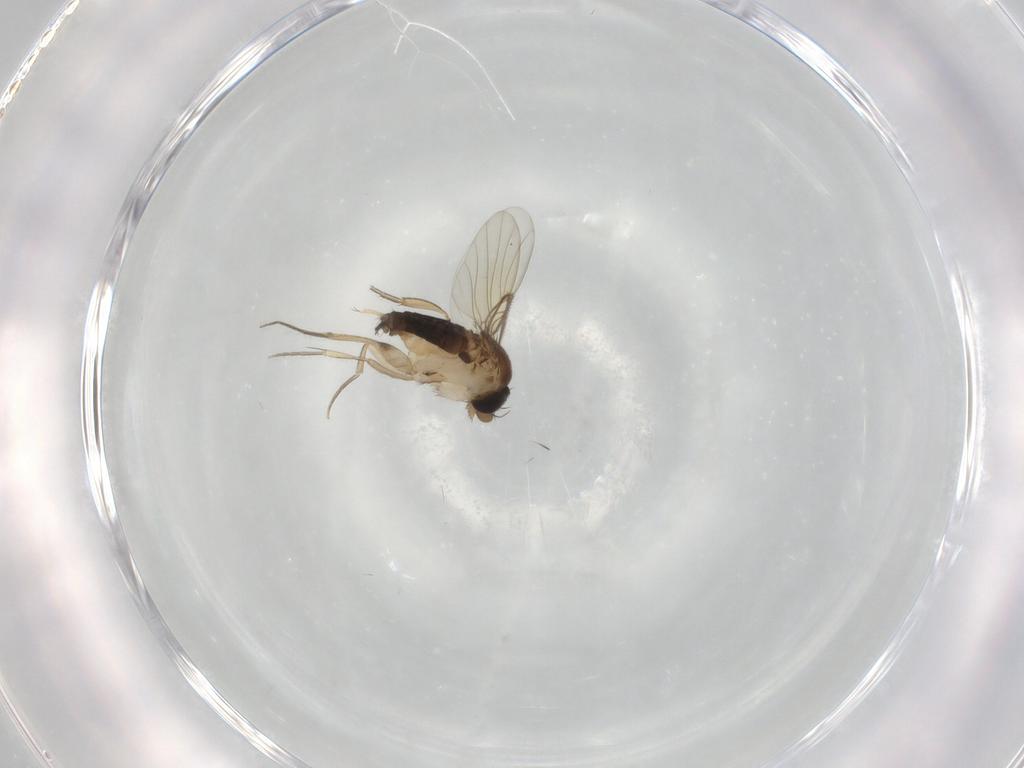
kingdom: Animalia
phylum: Arthropoda
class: Insecta
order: Diptera
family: Phoridae
